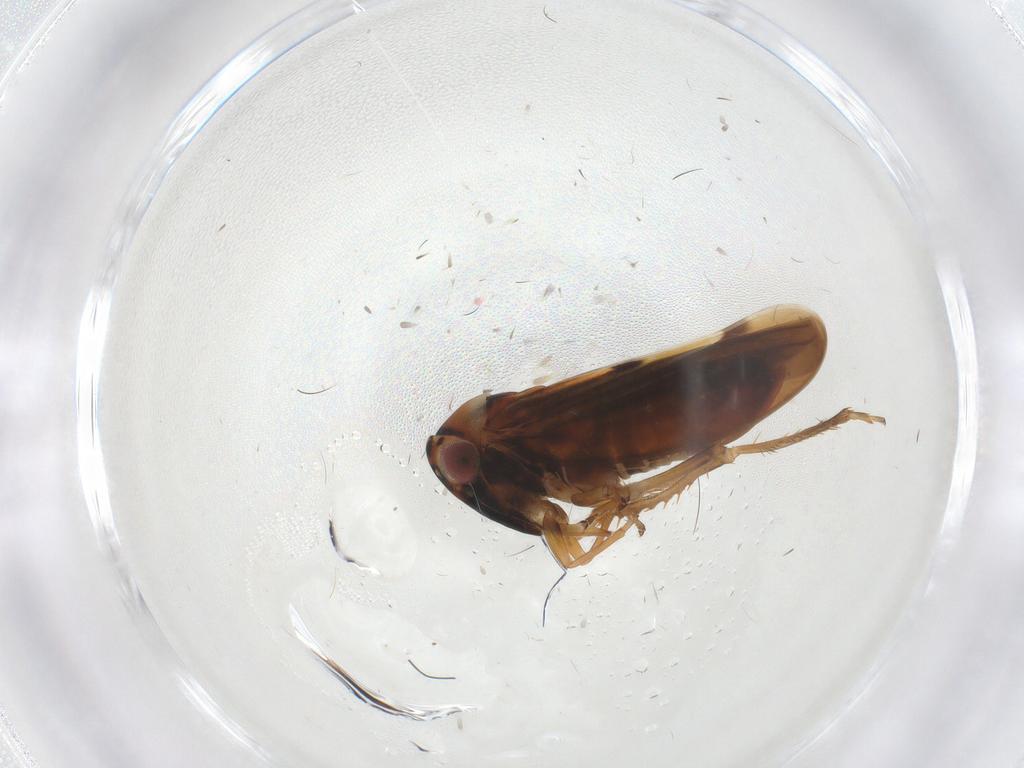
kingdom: Animalia
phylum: Arthropoda
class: Insecta
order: Hemiptera
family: Cicadellidae
